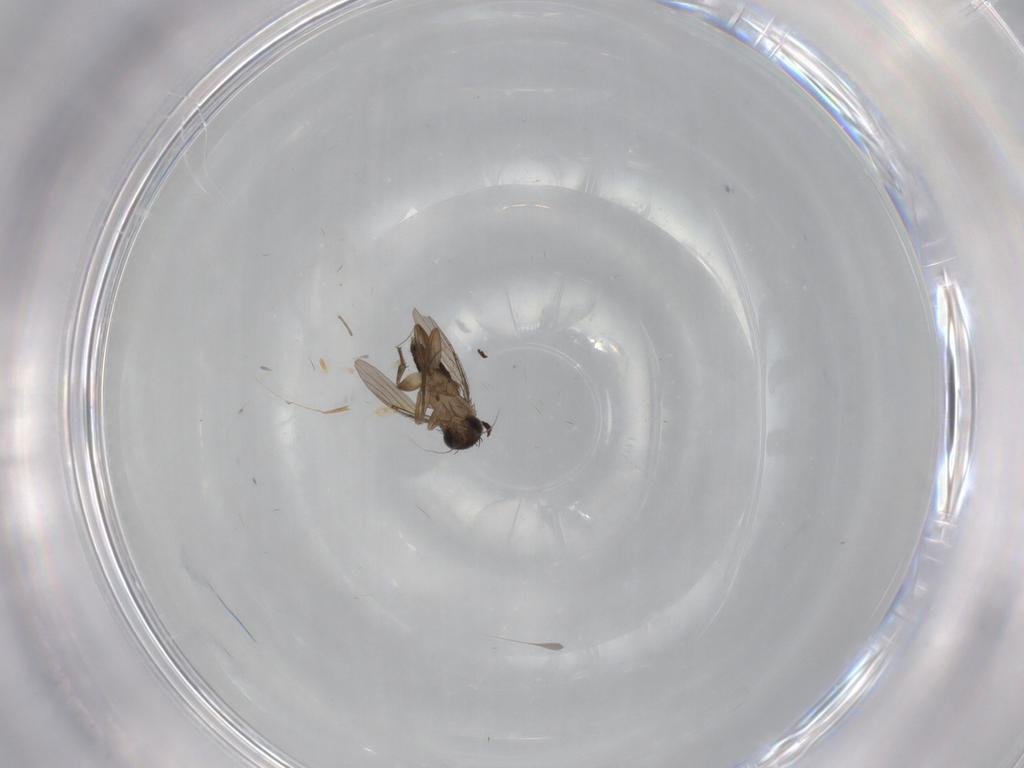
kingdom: Animalia
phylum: Arthropoda
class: Insecta
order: Diptera
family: Phoridae
